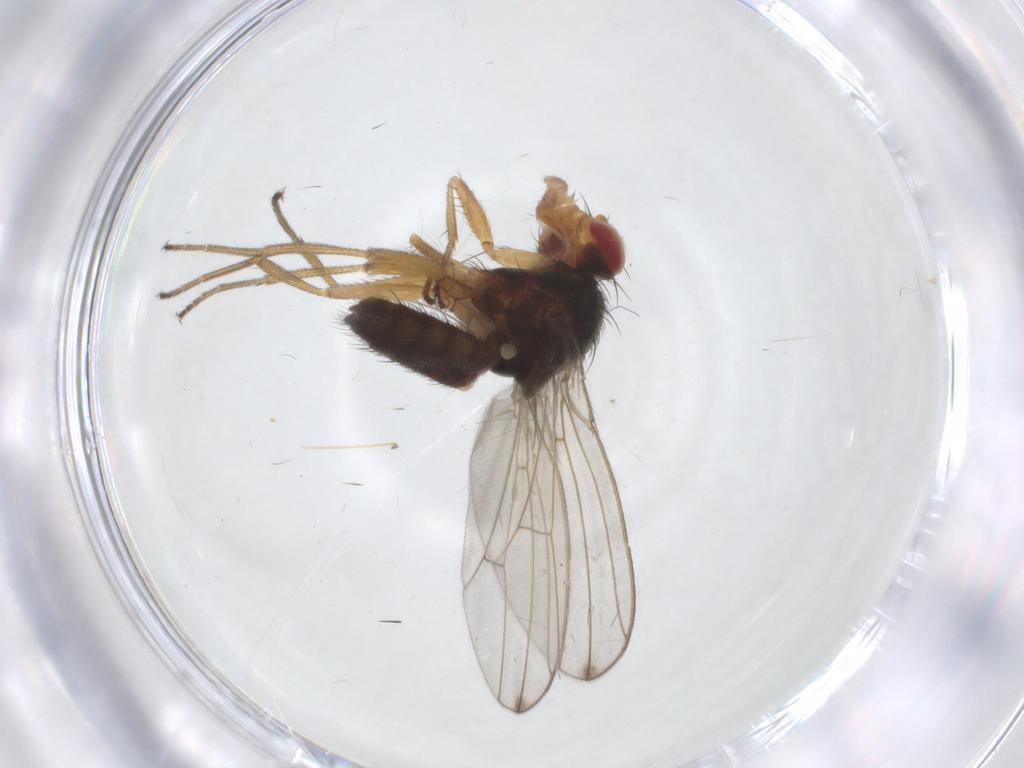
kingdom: Animalia
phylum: Arthropoda
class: Insecta
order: Diptera
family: Drosophilidae
